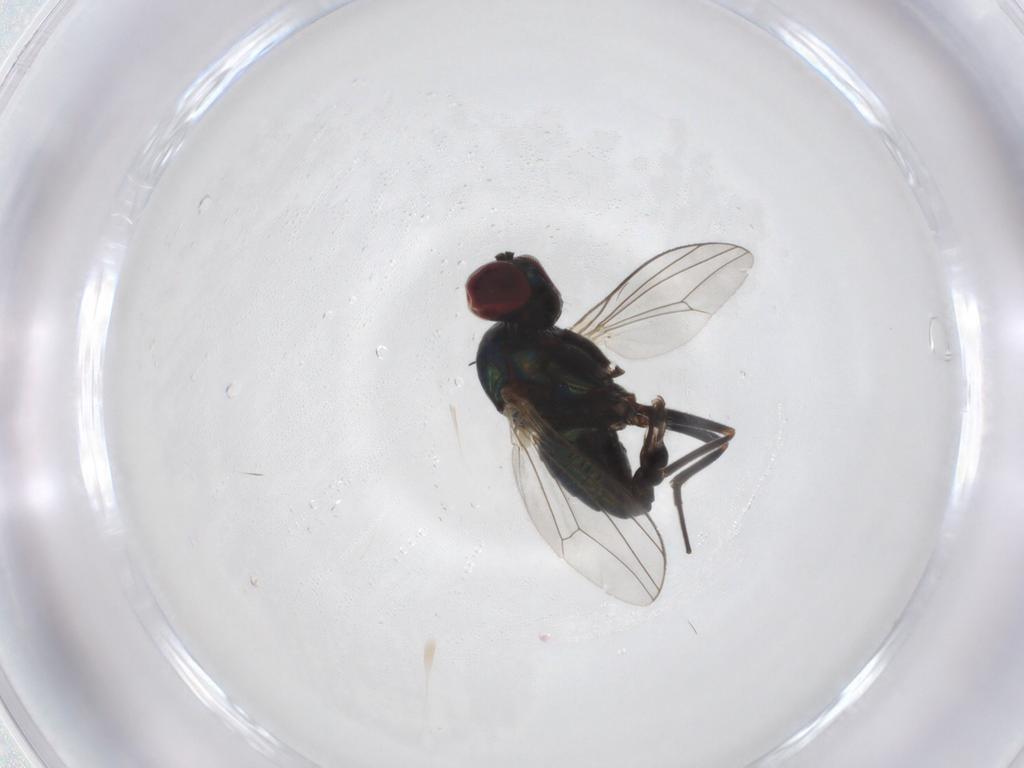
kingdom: Animalia
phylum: Arthropoda
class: Insecta
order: Diptera
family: Dolichopodidae
